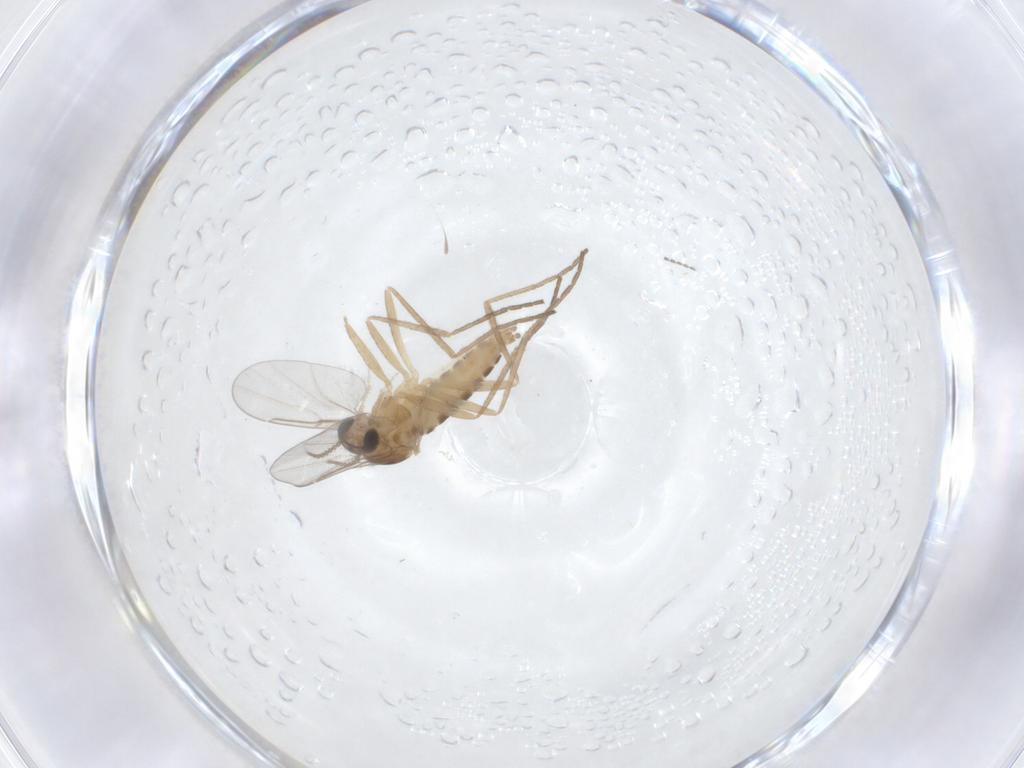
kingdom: Animalia
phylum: Arthropoda
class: Insecta
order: Diptera
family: Cecidomyiidae
